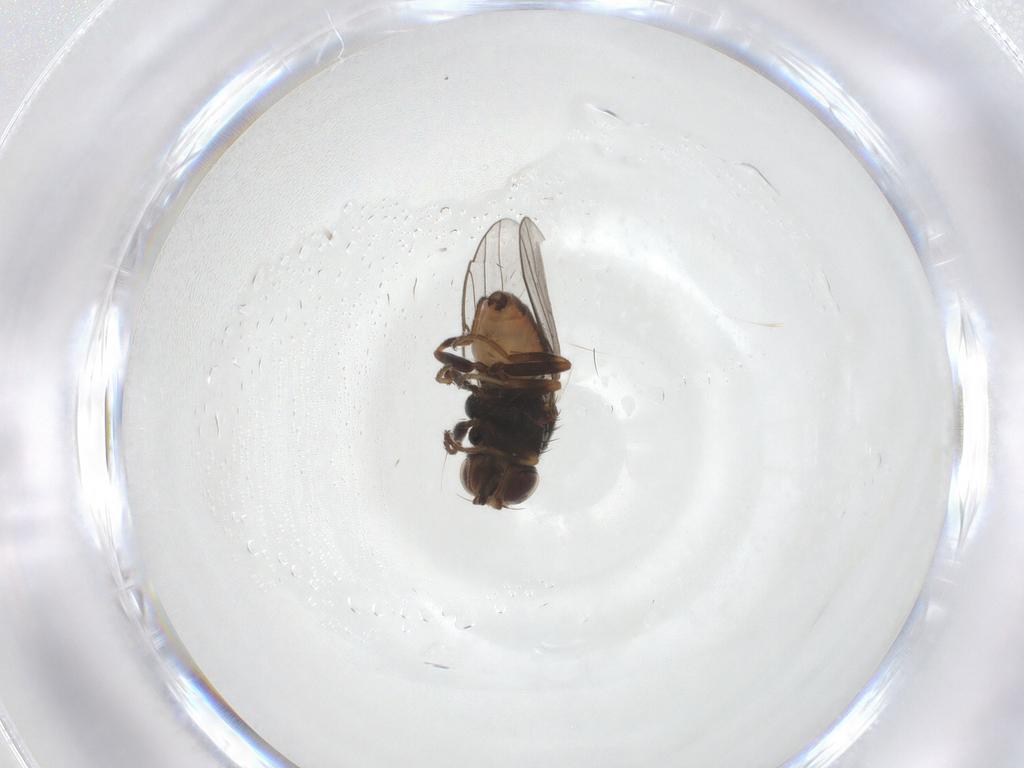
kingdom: Animalia
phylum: Arthropoda
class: Insecta
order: Diptera
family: Chloropidae
